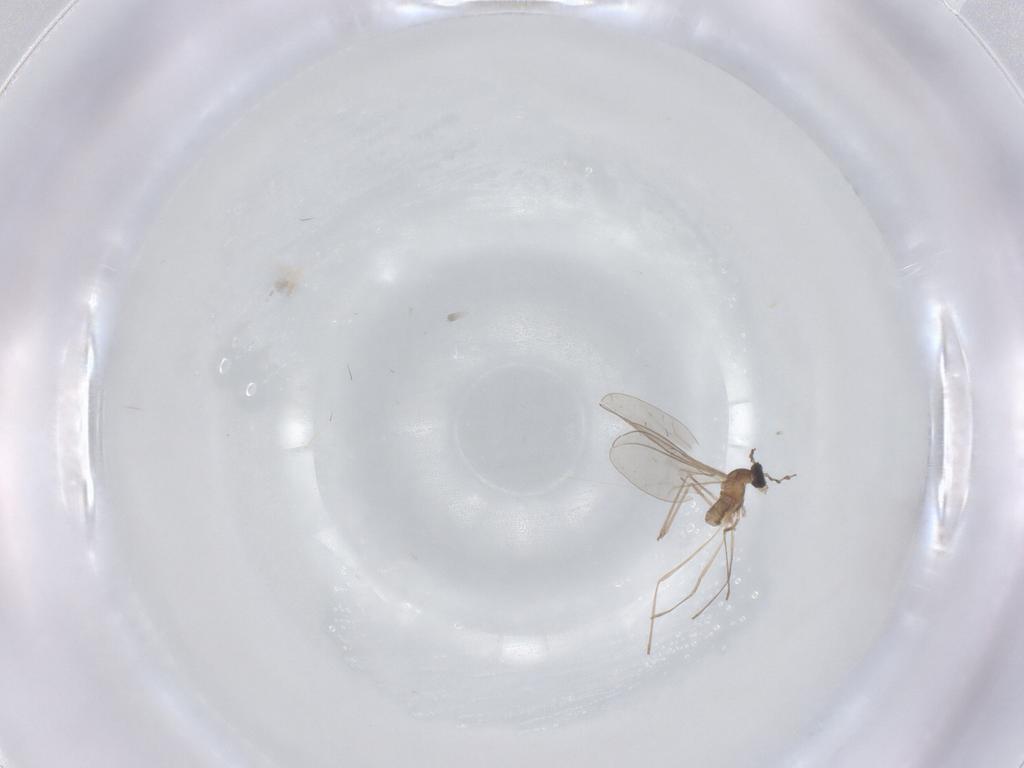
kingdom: Animalia
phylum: Arthropoda
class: Insecta
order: Diptera
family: Cecidomyiidae
